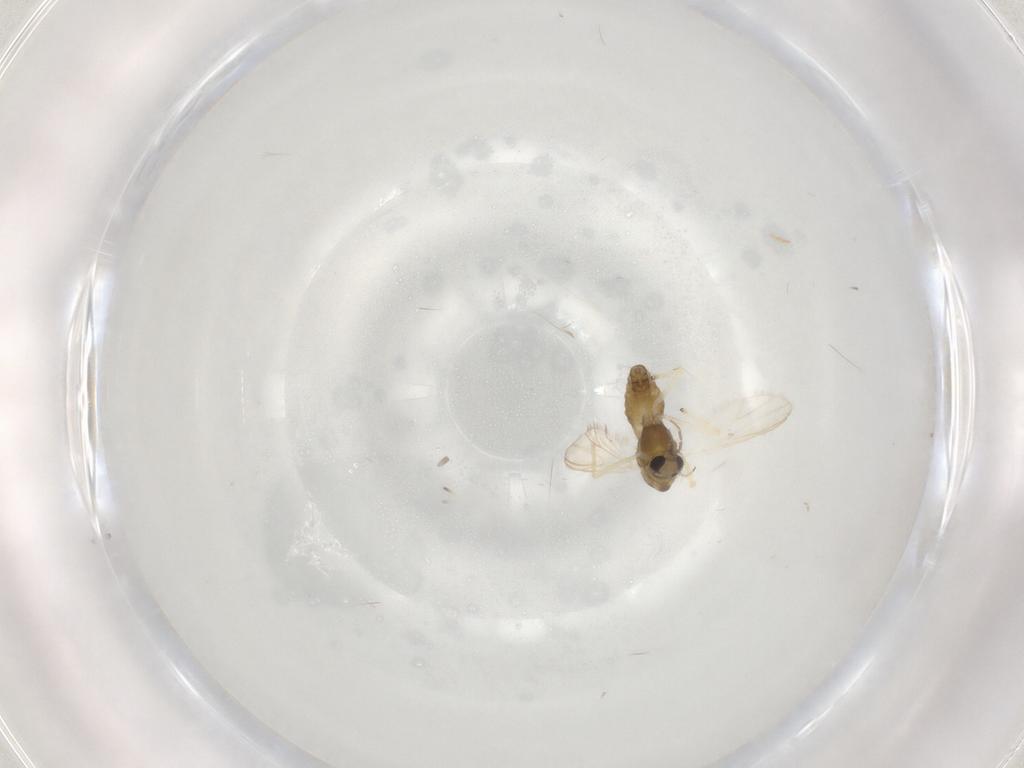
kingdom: Animalia
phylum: Arthropoda
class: Insecta
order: Diptera
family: Chironomidae
